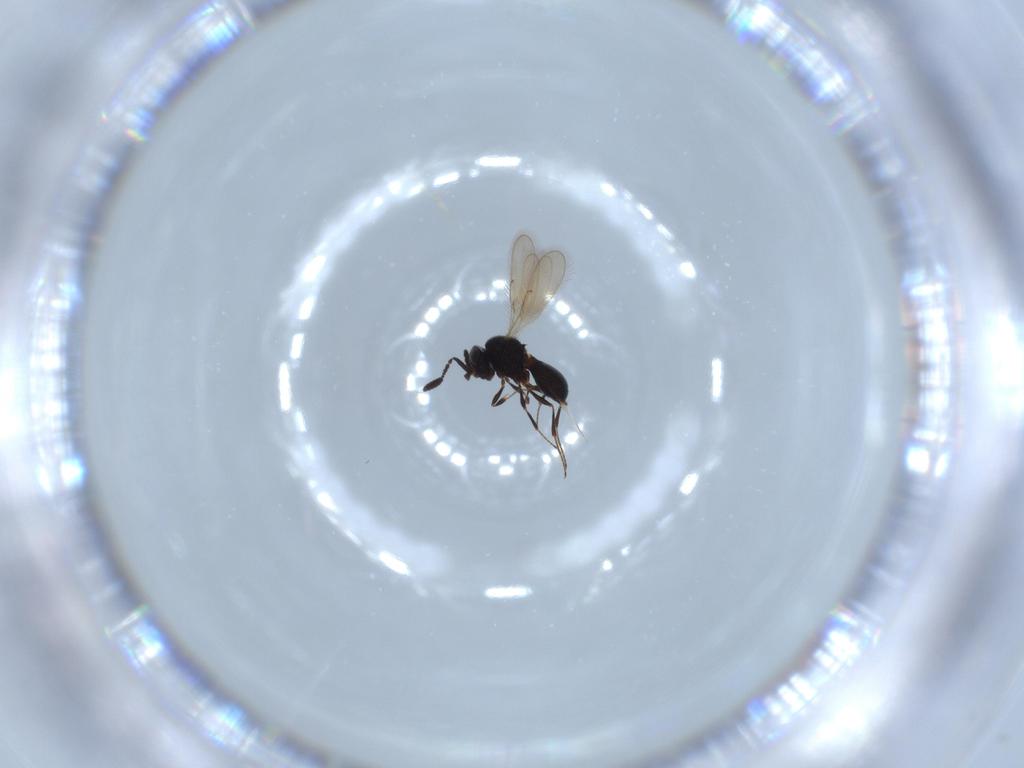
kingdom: Animalia
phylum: Arthropoda
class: Insecta
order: Hymenoptera
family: Scelionidae
